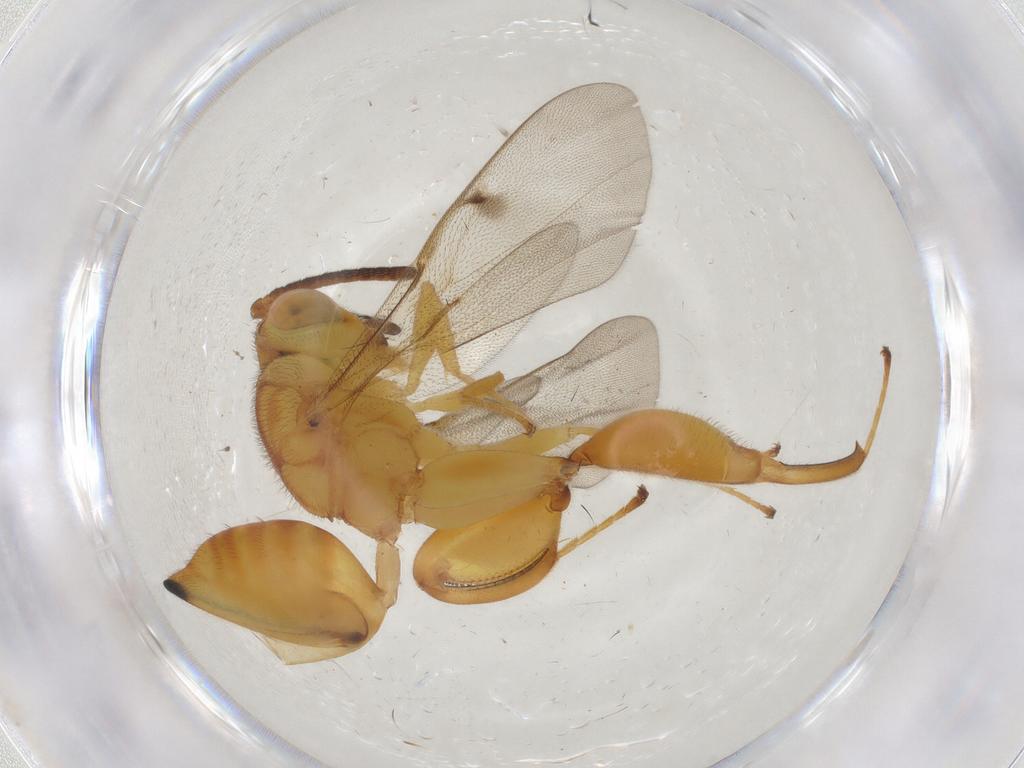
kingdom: Animalia
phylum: Arthropoda
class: Insecta
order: Hymenoptera
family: Chalcididae
